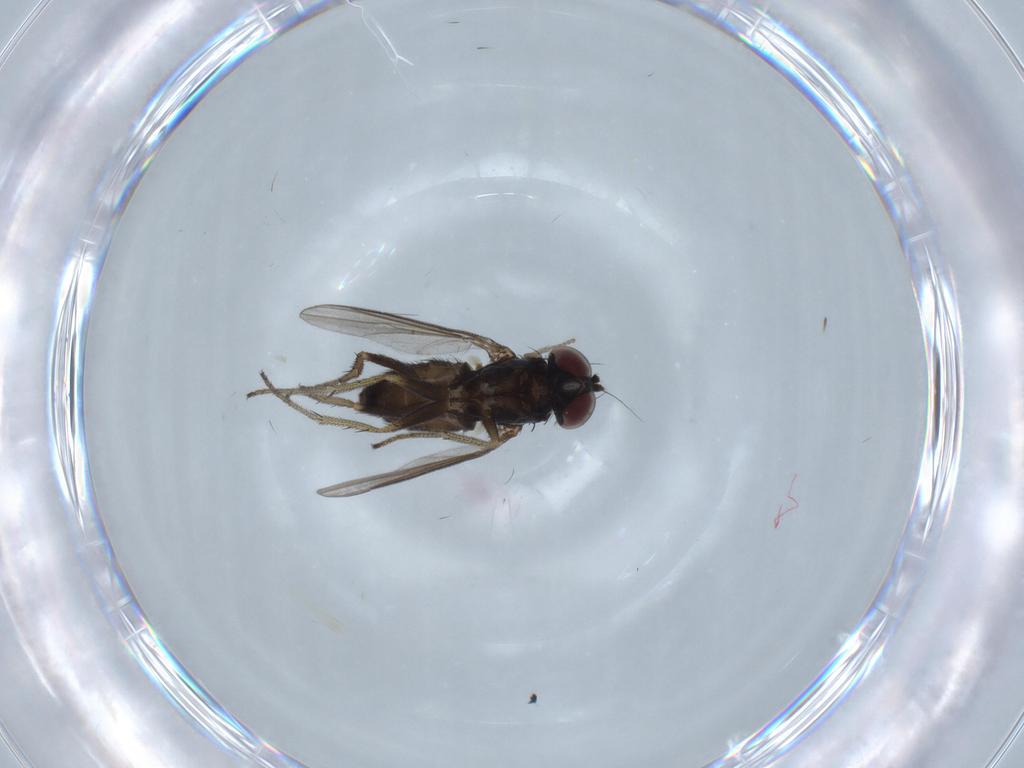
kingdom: Animalia
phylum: Arthropoda
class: Insecta
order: Diptera
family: Dolichopodidae
